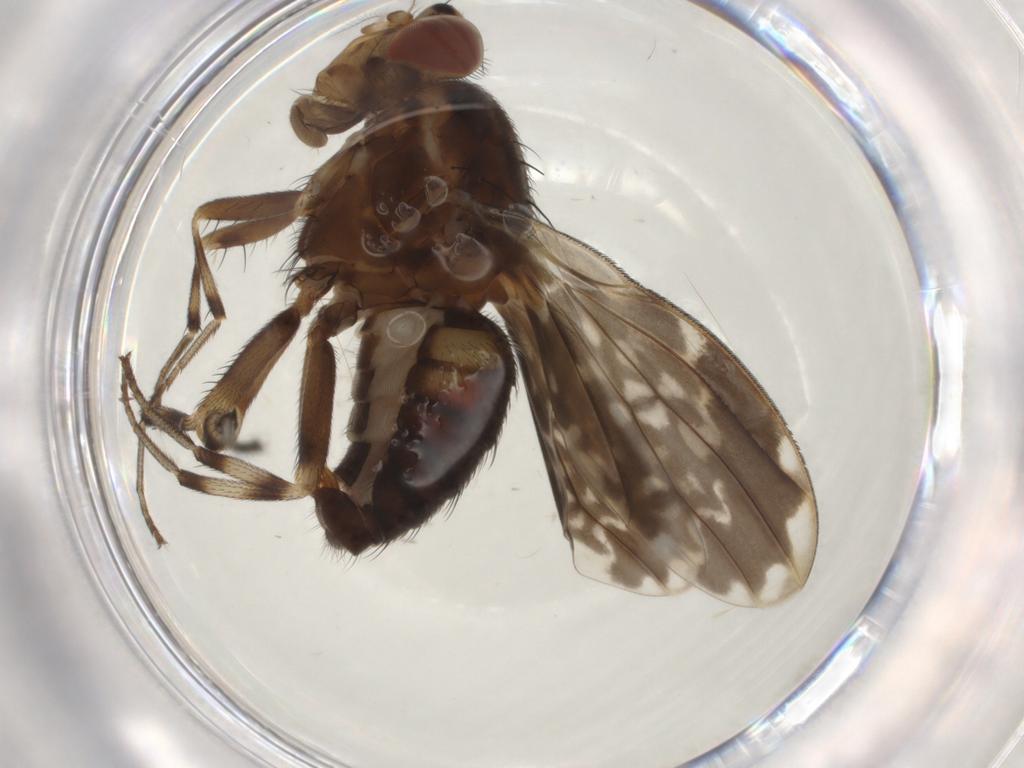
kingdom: Animalia
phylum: Arthropoda
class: Insecta
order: Diptera
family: Lauxaniidae
